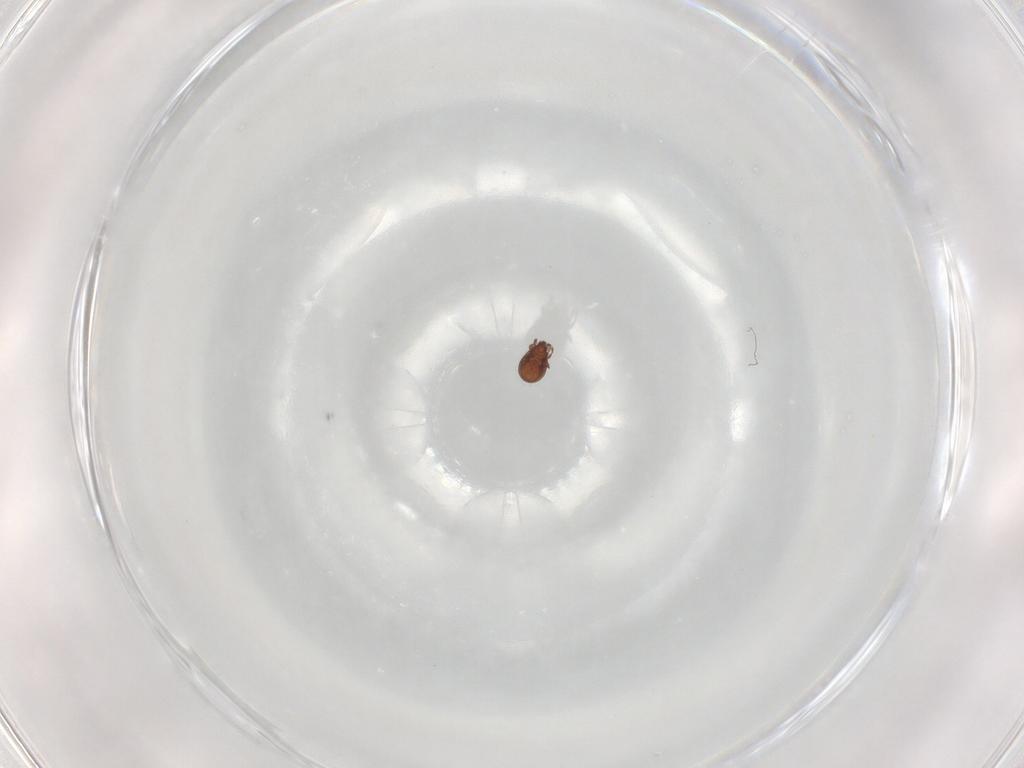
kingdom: Animalia
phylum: Arthropoda
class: Arachnida
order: Sarcoptiformes
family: Tectocepheidae
